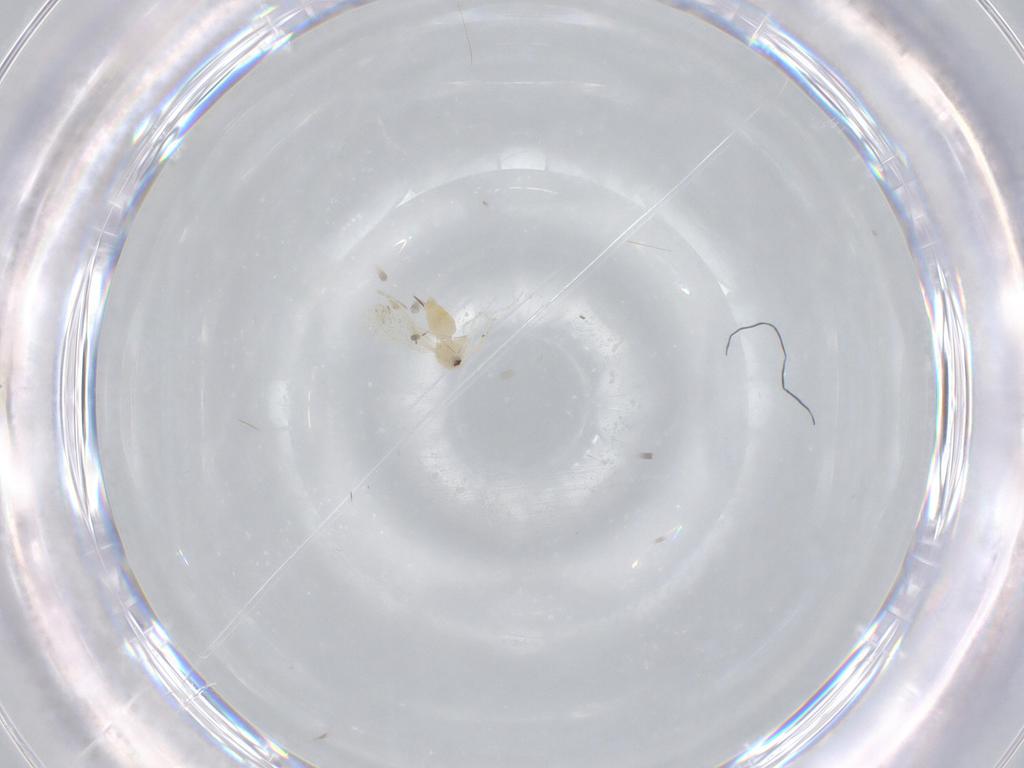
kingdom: Animalia
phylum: Arthropoda
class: Insecta
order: Hemiptera
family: Aleyrodidae
